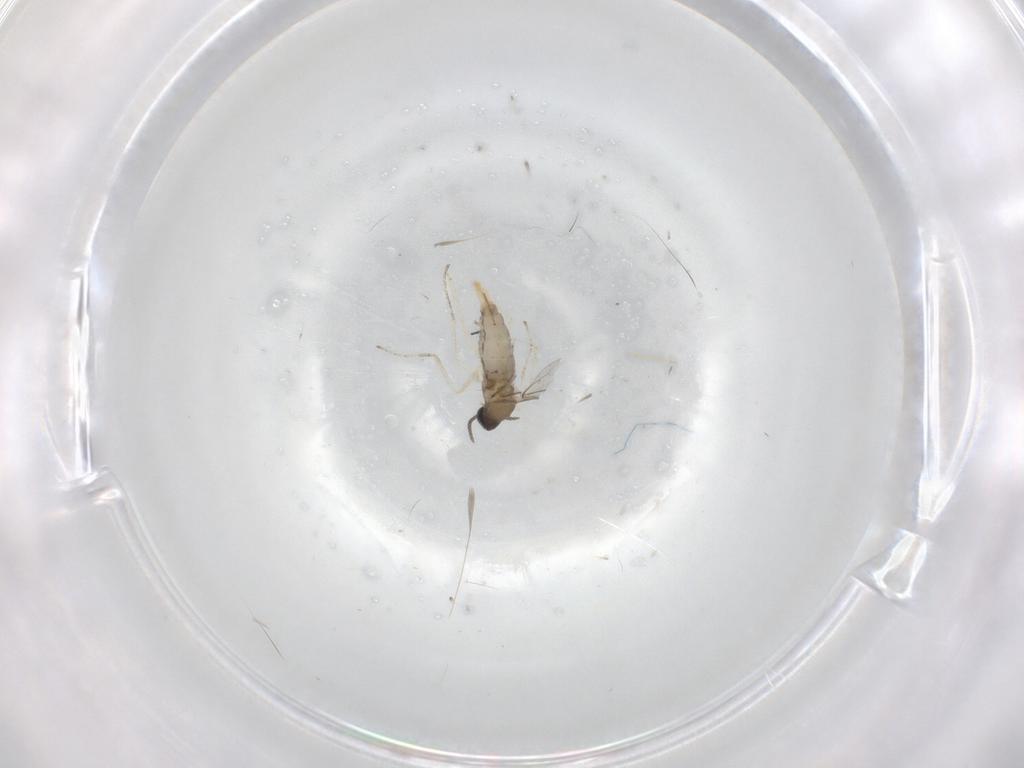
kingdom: Animalia
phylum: Arthropoda
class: Insecta
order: Diptera
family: Cecidomyiidae
